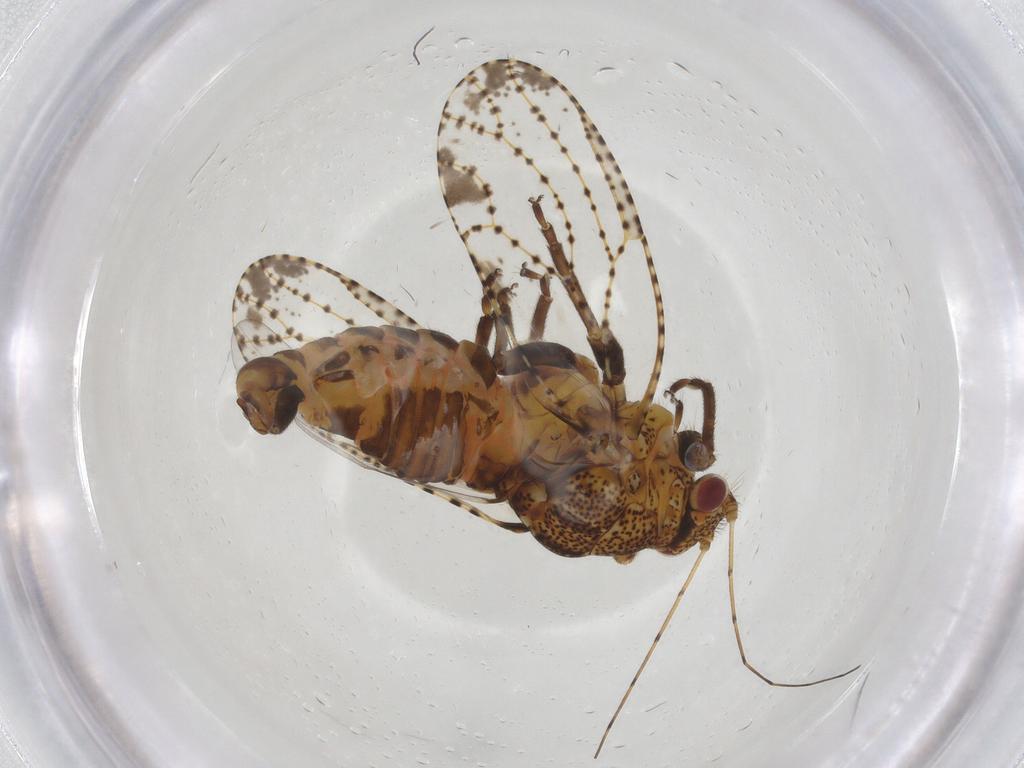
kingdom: Animalia
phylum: Arthropoda
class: Insecta
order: Hemiptera
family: Psyllidae
